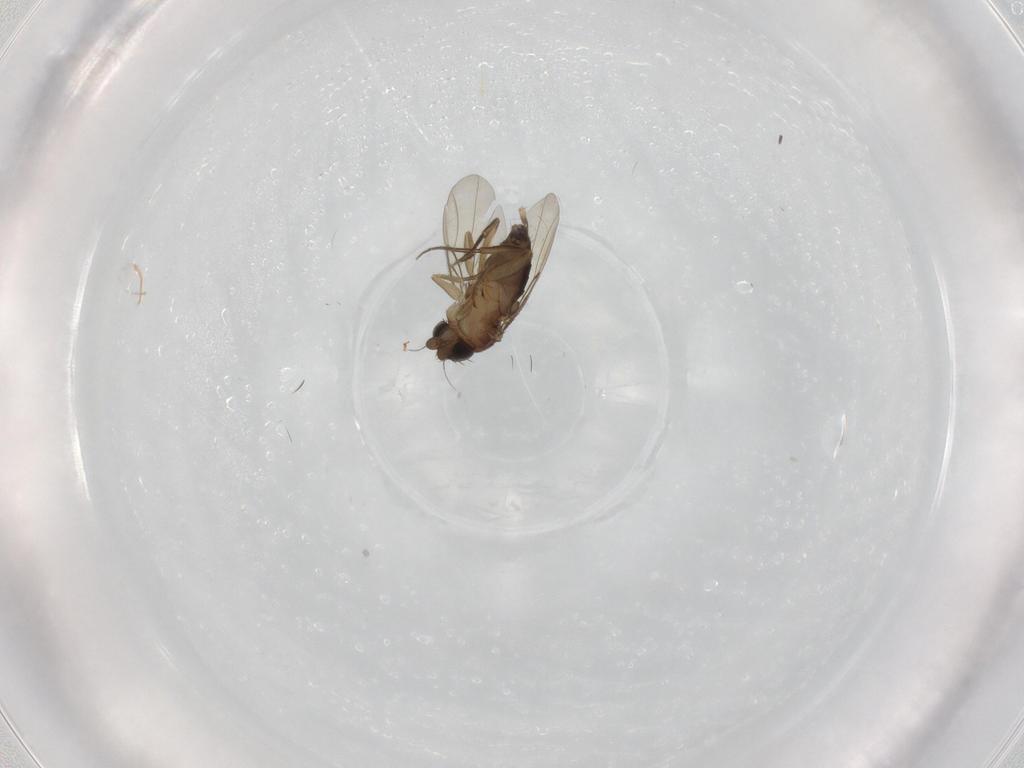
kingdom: Animalia
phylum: Arthropoda
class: Insecta
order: Diptera
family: Phoridae
